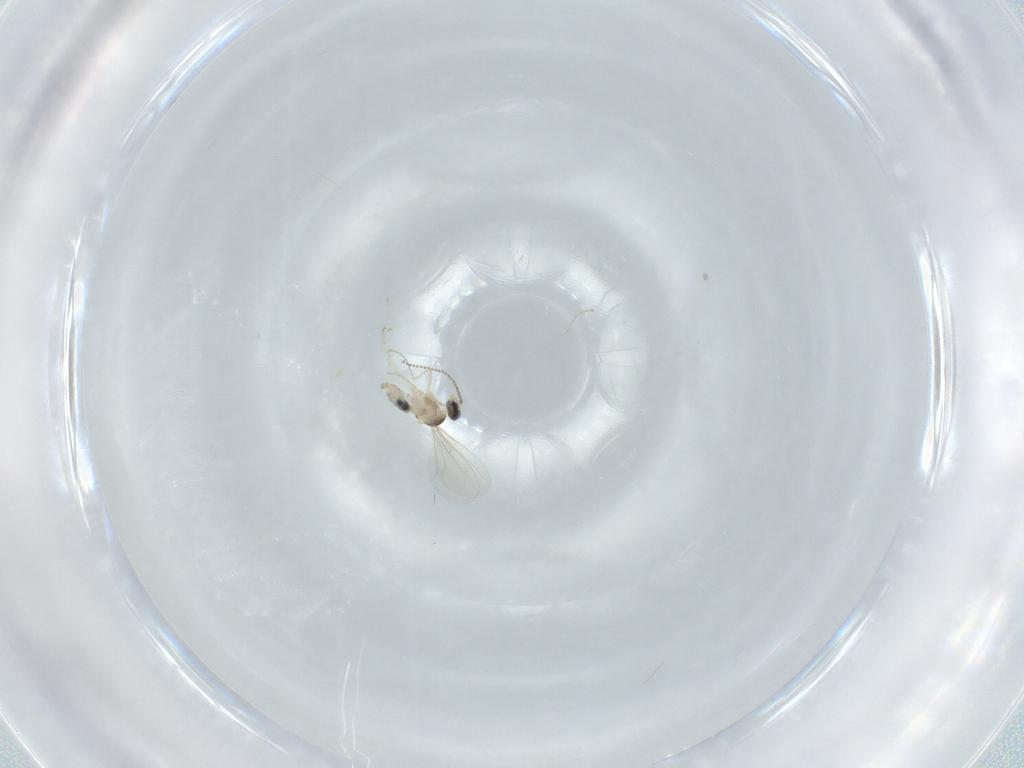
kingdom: Animalia
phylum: Arthropoda
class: Insecta
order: Diptera
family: Cecidomyiidae
